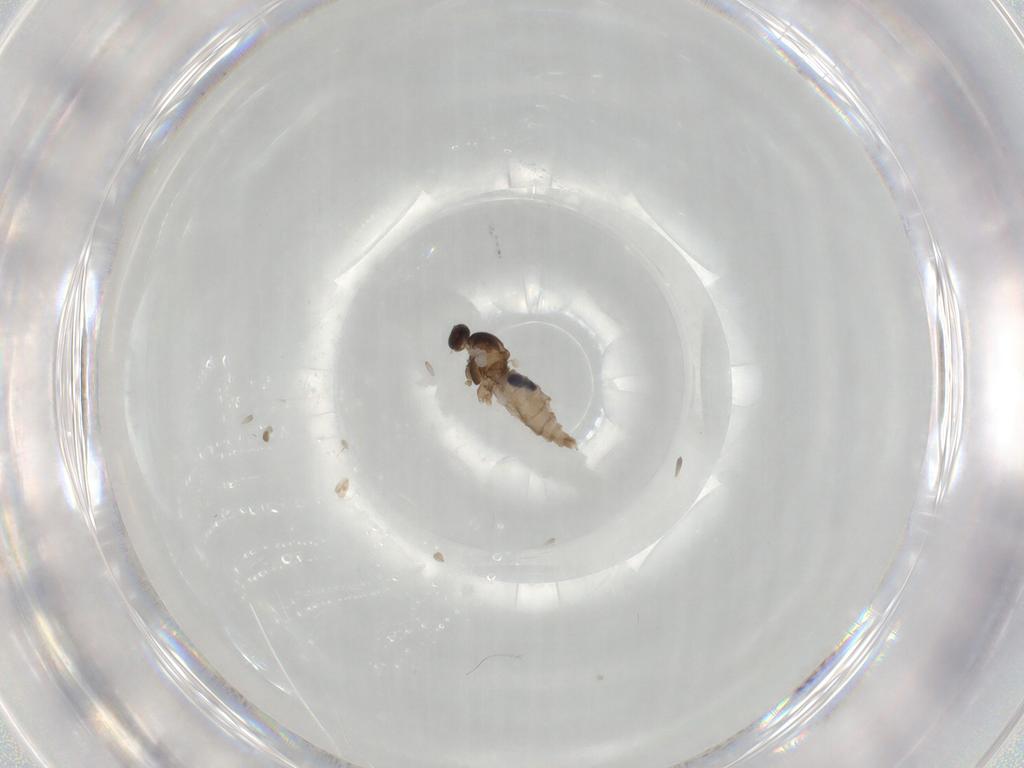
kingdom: Animalia
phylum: Arthropoda
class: Insecta
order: Diptera
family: Cecidomyiidae
